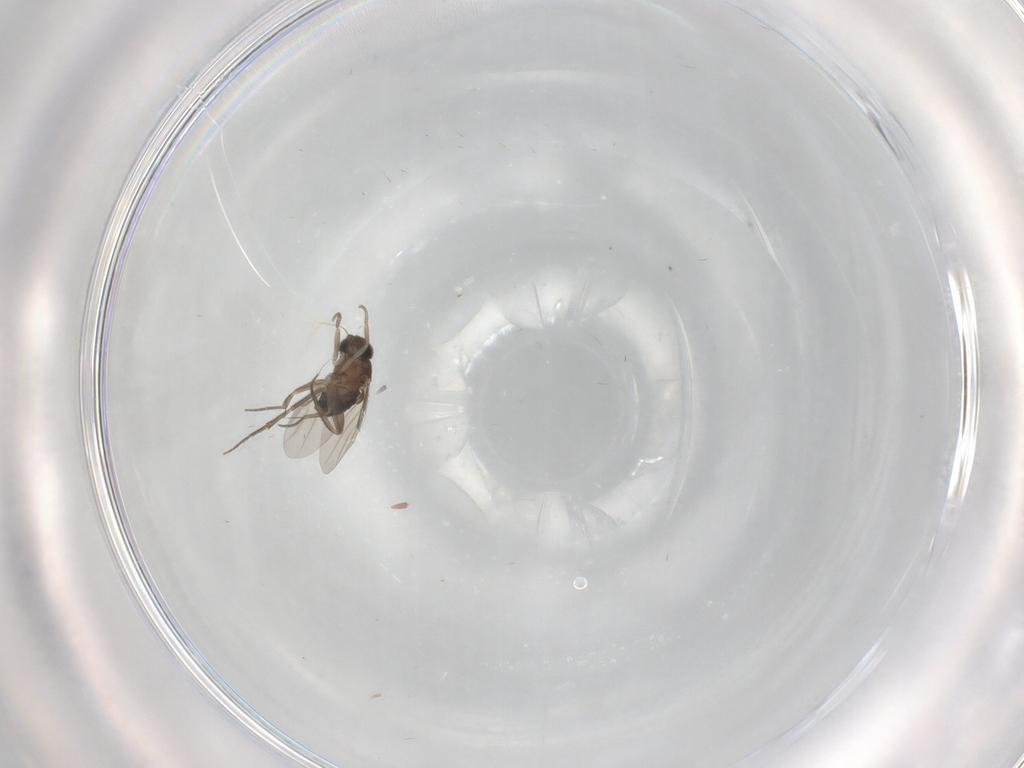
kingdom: Animalia
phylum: Arthropoda
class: Insecta
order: Diptera
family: Phoridae
